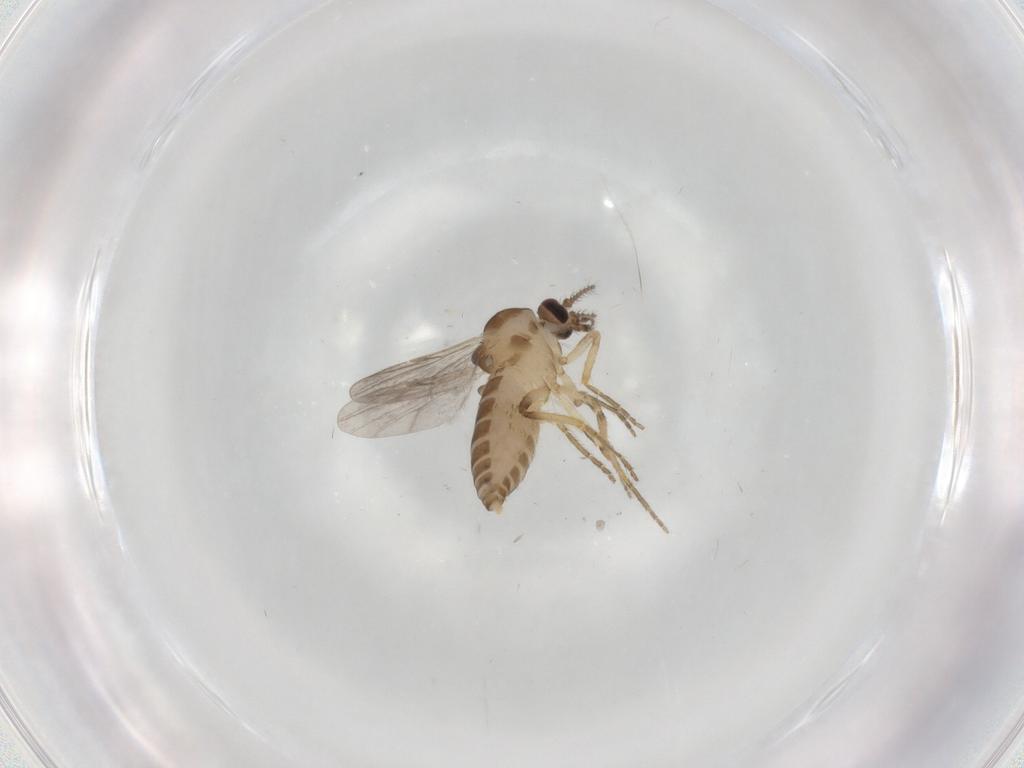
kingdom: Animalia
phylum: Arthropoda
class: Insecta
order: Diptera
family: Ceratopogonidae
